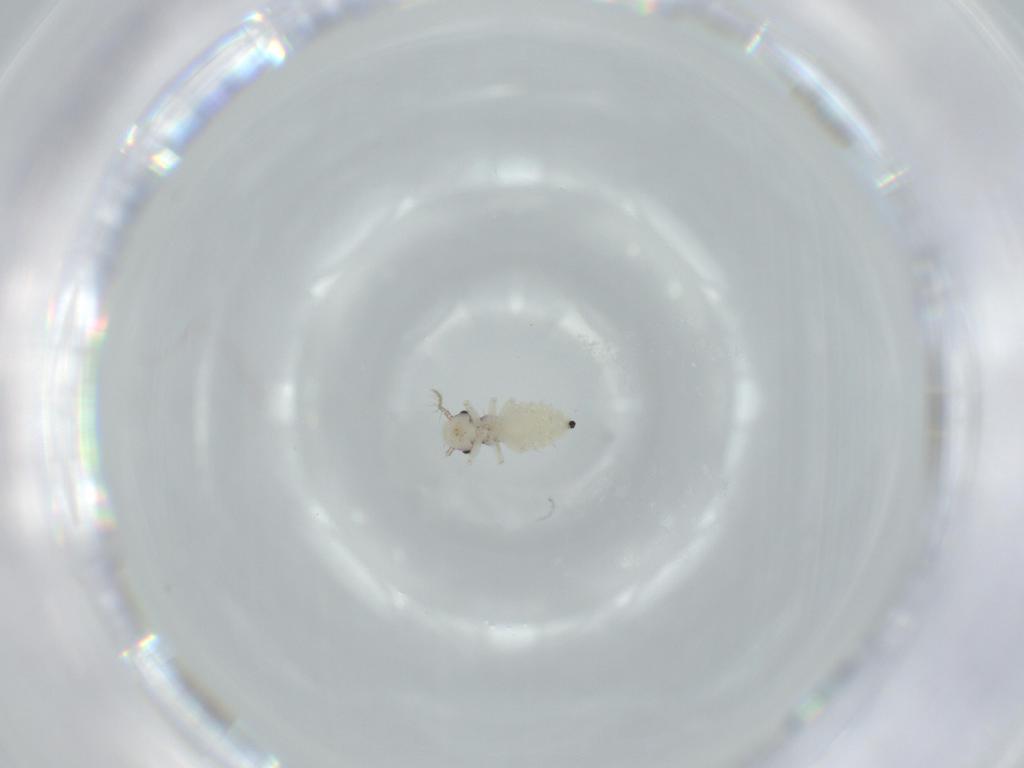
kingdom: Animalia
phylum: Arthropoda
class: Insecta
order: Psocodea
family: Pseudocaeciliidae
